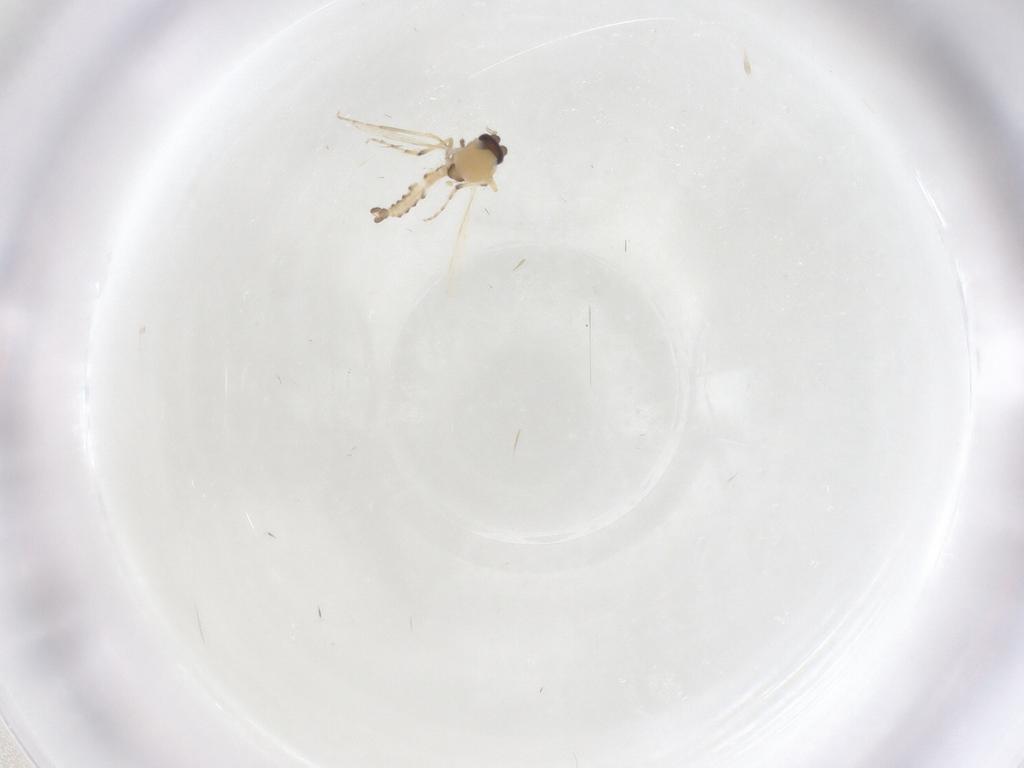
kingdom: Animalia
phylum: Arthropoda
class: Insecta
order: Diptera
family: Ceratopogonidae
